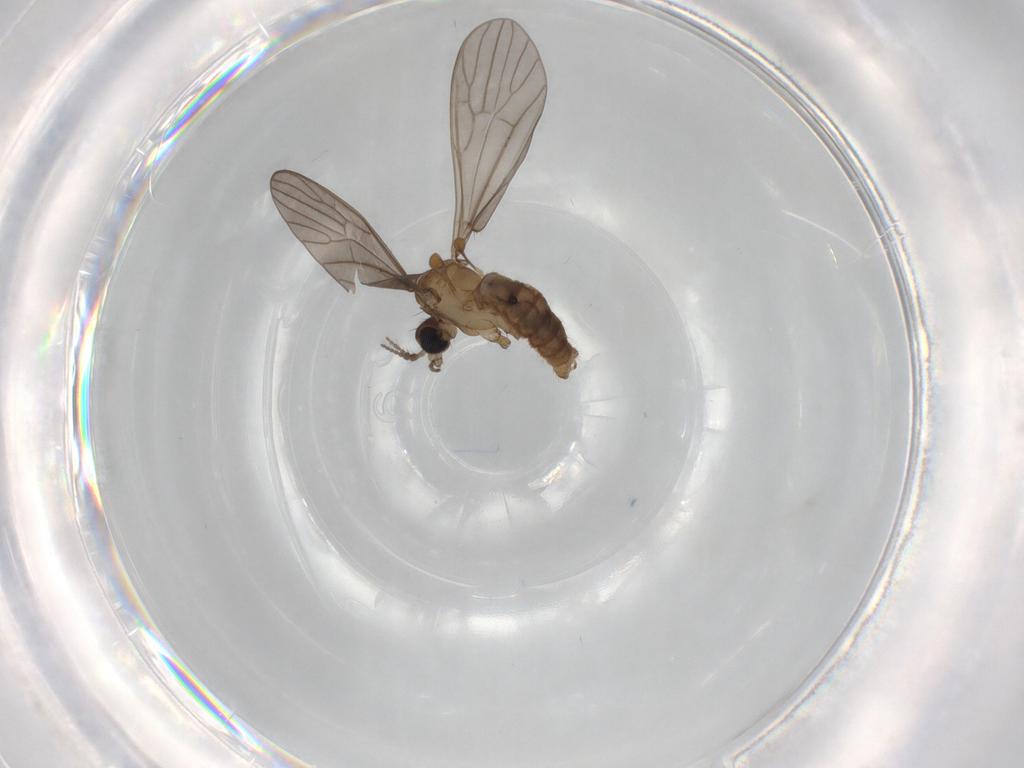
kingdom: Animalia
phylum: Arthropoda
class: Insecta
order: Diptera
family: Limoniidae
